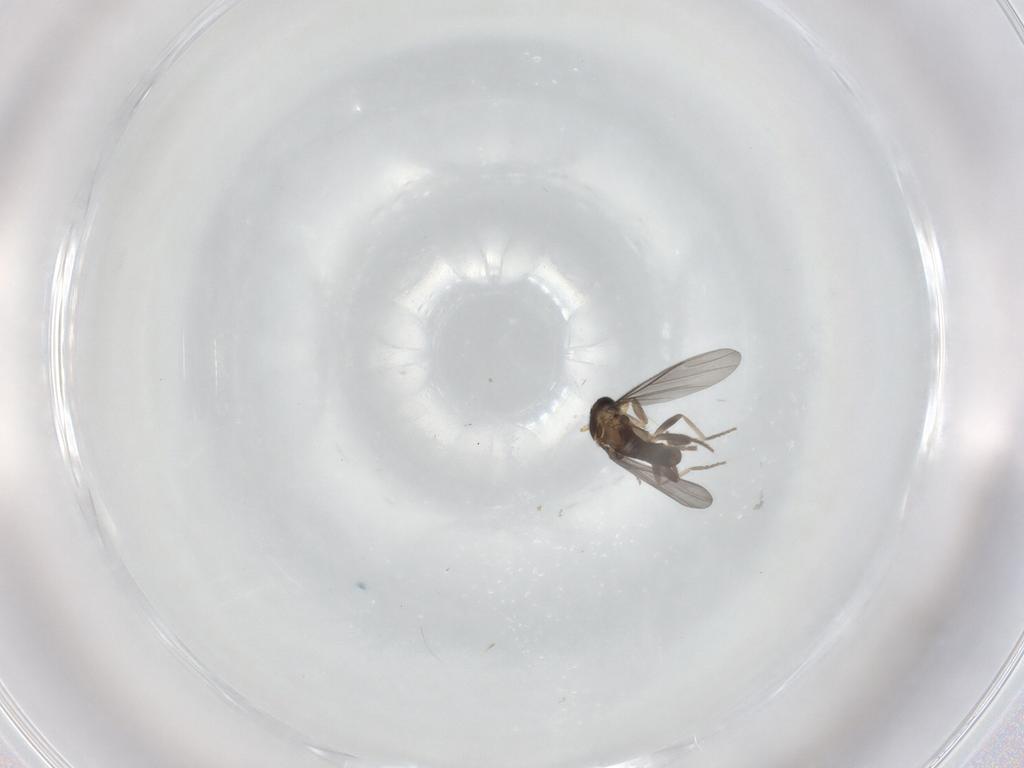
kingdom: Animalia
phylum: Arthropoda
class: Insecta
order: Diptera
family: Phoridae
